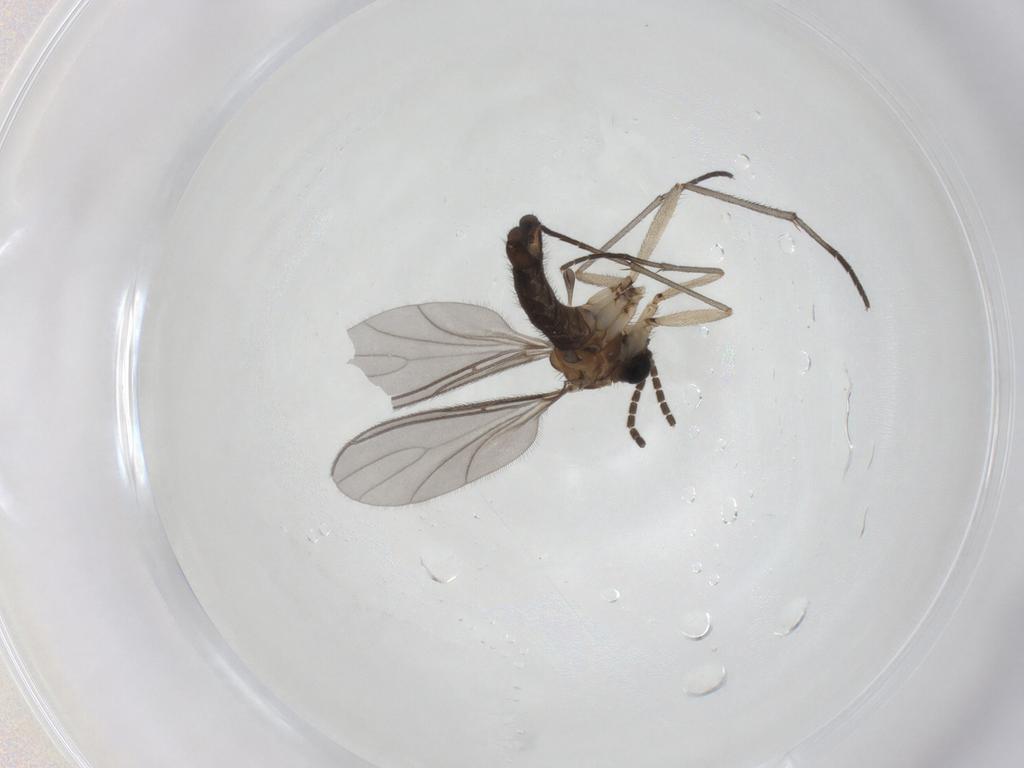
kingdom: Animalia
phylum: Arthropoda
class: Insecta
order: Diptera
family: Sciaridae
